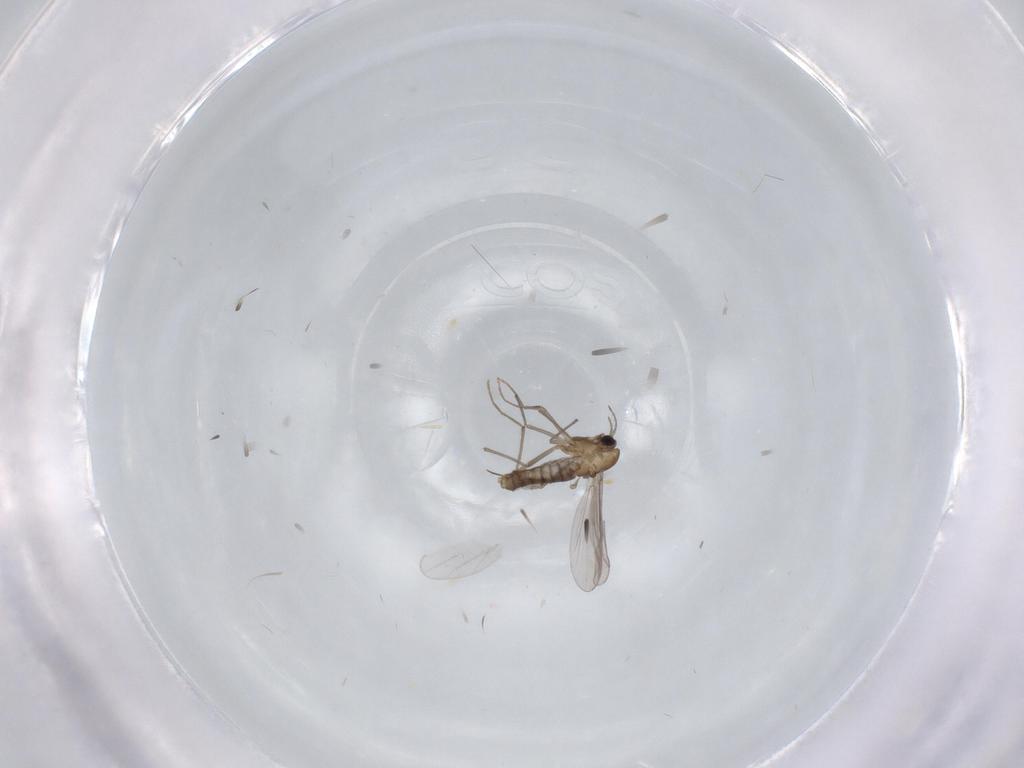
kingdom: Animalia
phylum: Arthropoda
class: Insecta
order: Diptera
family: Chironomidae
